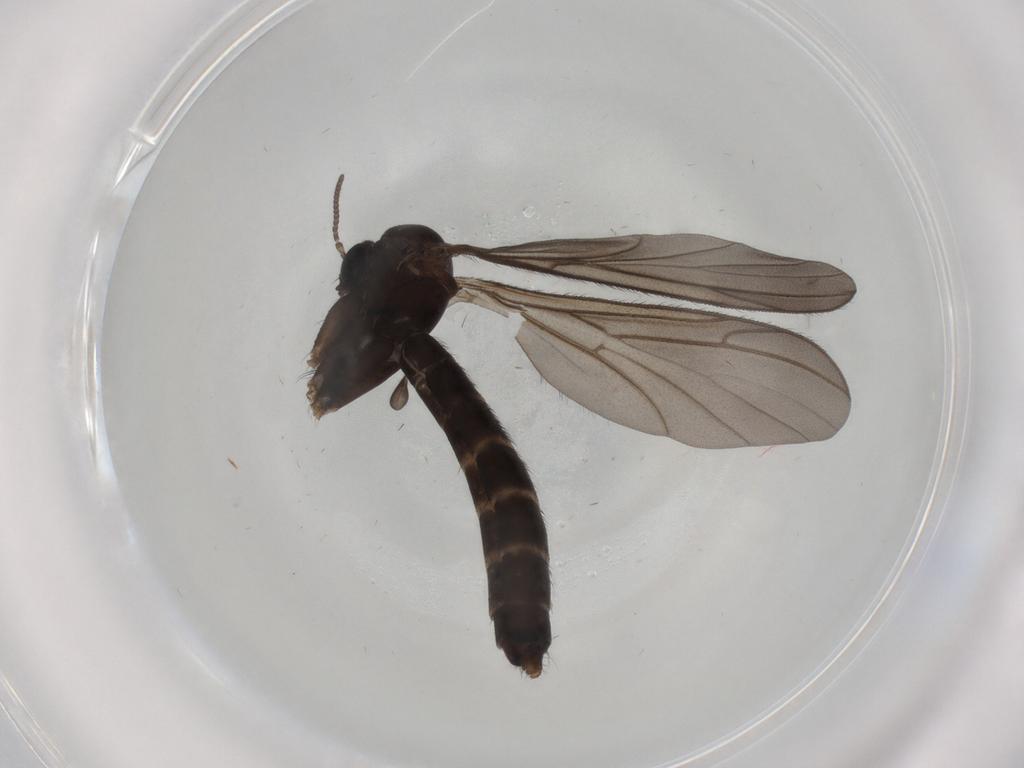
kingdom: Animalia
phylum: Arthropoda
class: Insecta
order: Diptera
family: Ditomyiidae
